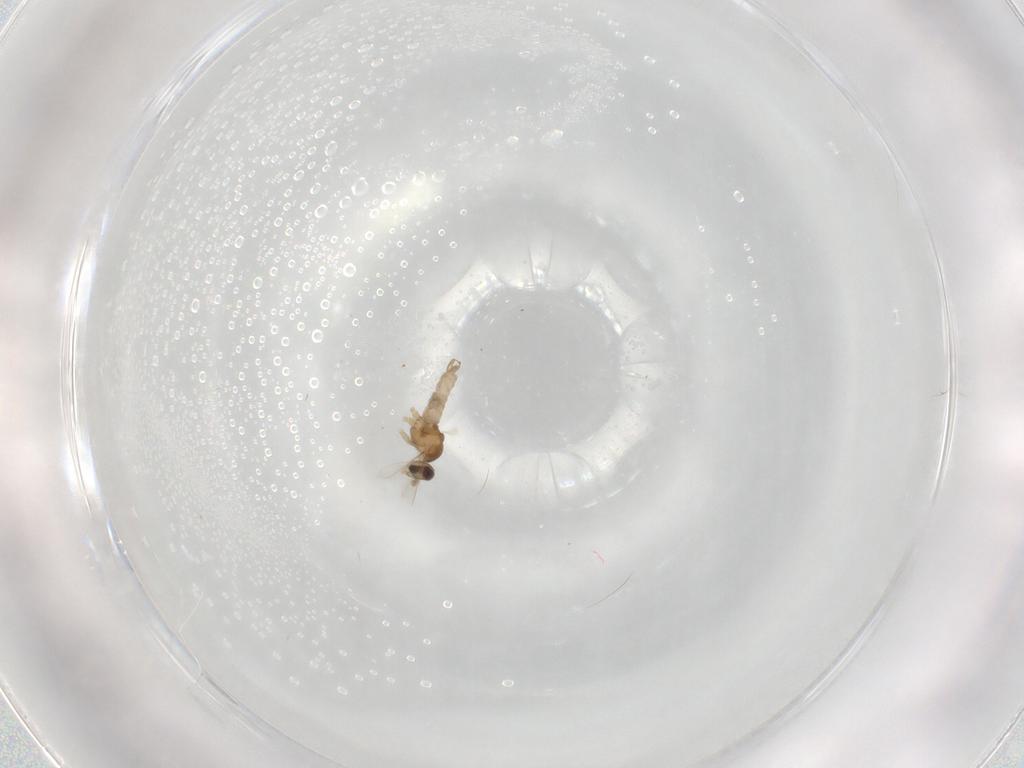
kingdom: Animalia
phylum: Arthropoda
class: Insecta
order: Diptera
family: Cecidomyiidae
